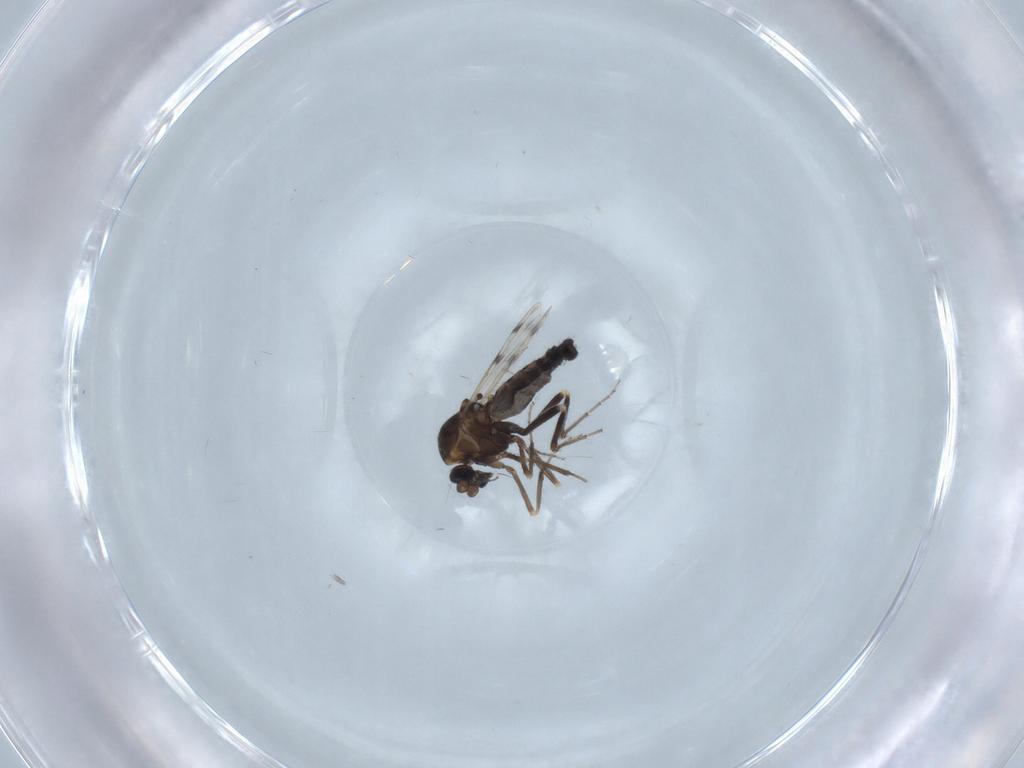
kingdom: Animalia
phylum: Arthropoda
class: Insecta
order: Diptera
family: Ceratopogonidae
